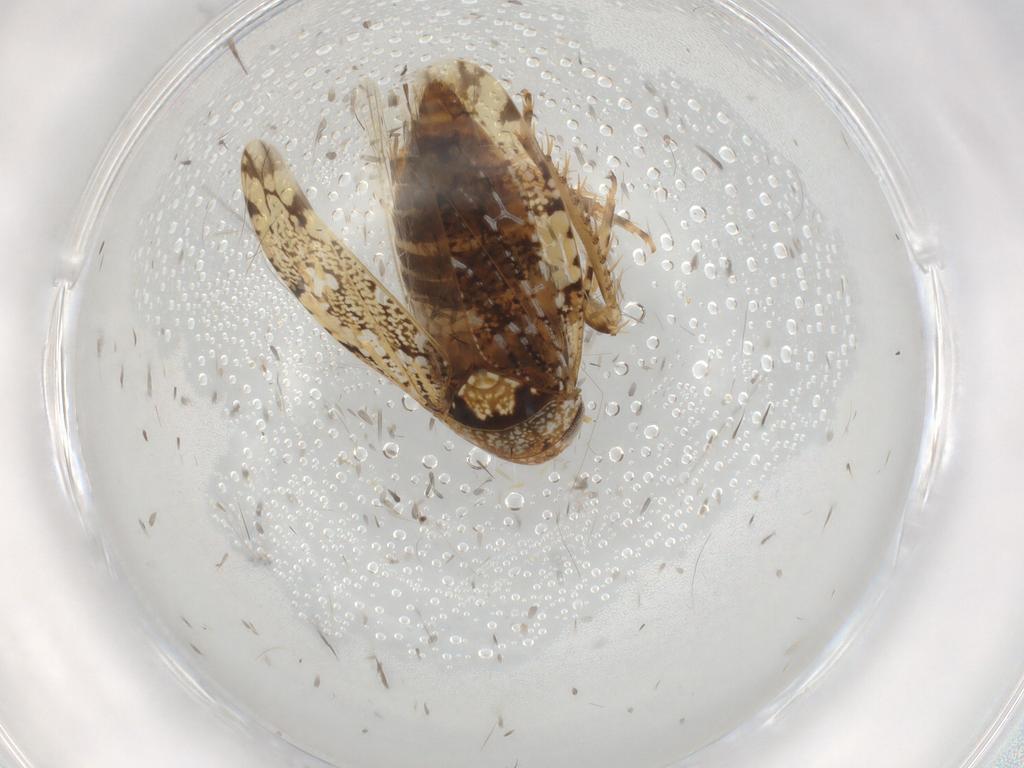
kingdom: Animalia
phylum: Arthropoda
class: Insecta
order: Hemiptera
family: Cicadellidae
